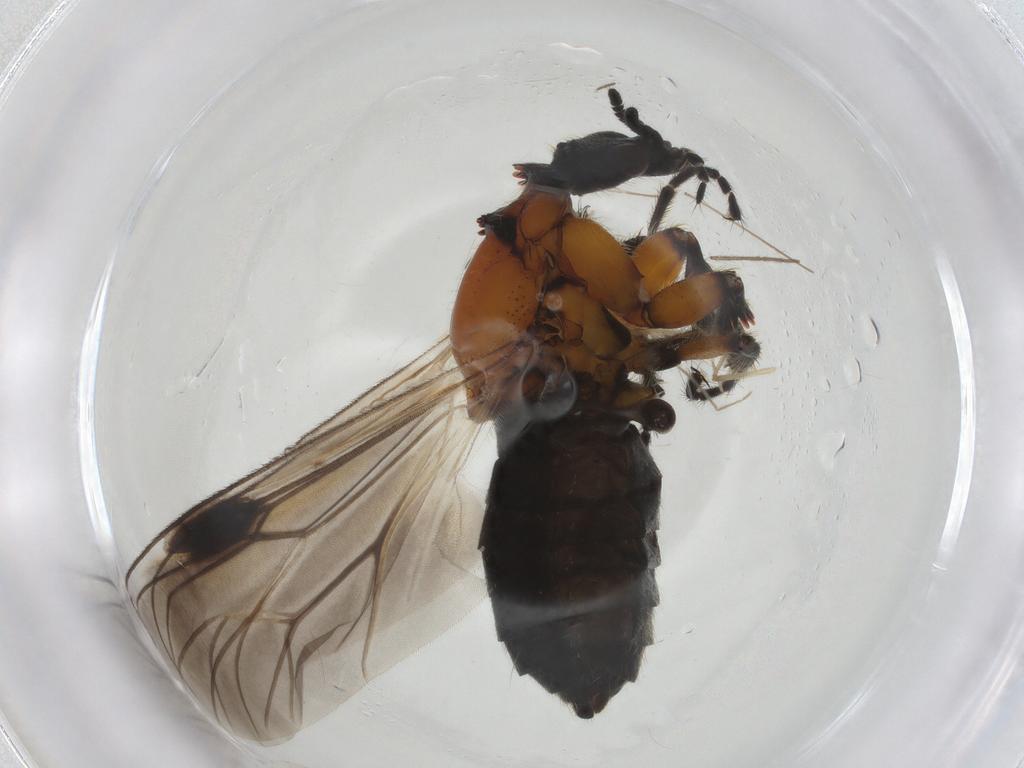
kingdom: Animalia
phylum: Arthropoda
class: Insecta
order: Diptera
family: Bibionidae
